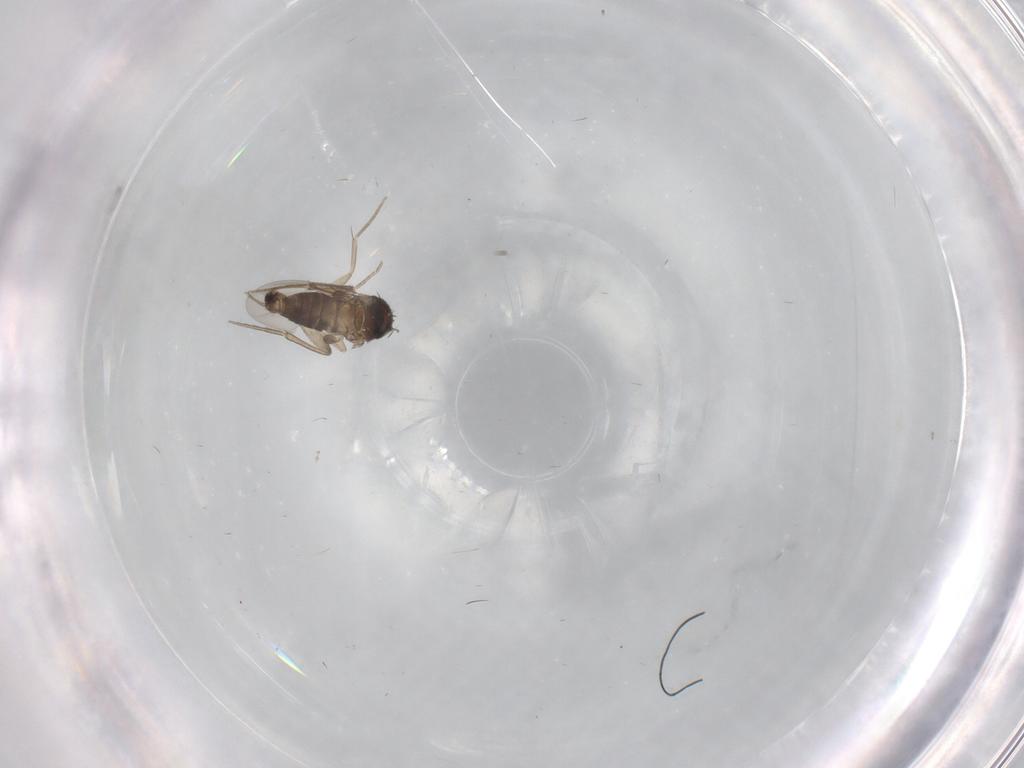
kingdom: Animalia
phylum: Arthropoda
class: Insecta
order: Diptera
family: Phoridae
